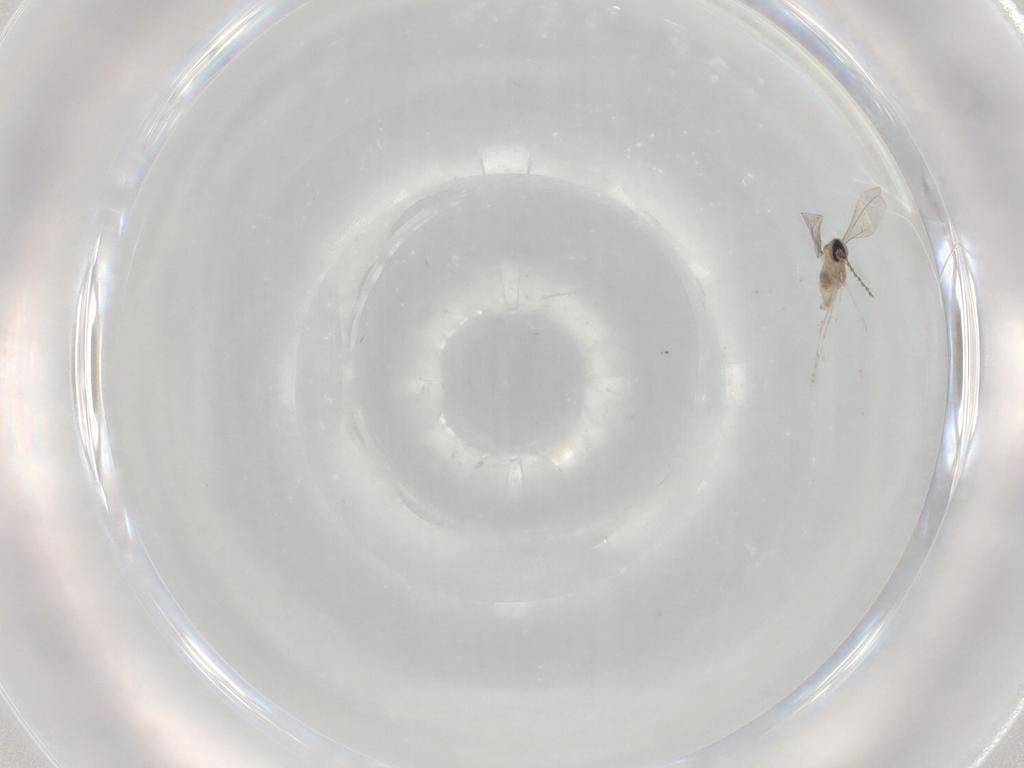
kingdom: Animalia
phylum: Arthropoda
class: Insecta
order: Diptera
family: Cecidomyiidae
